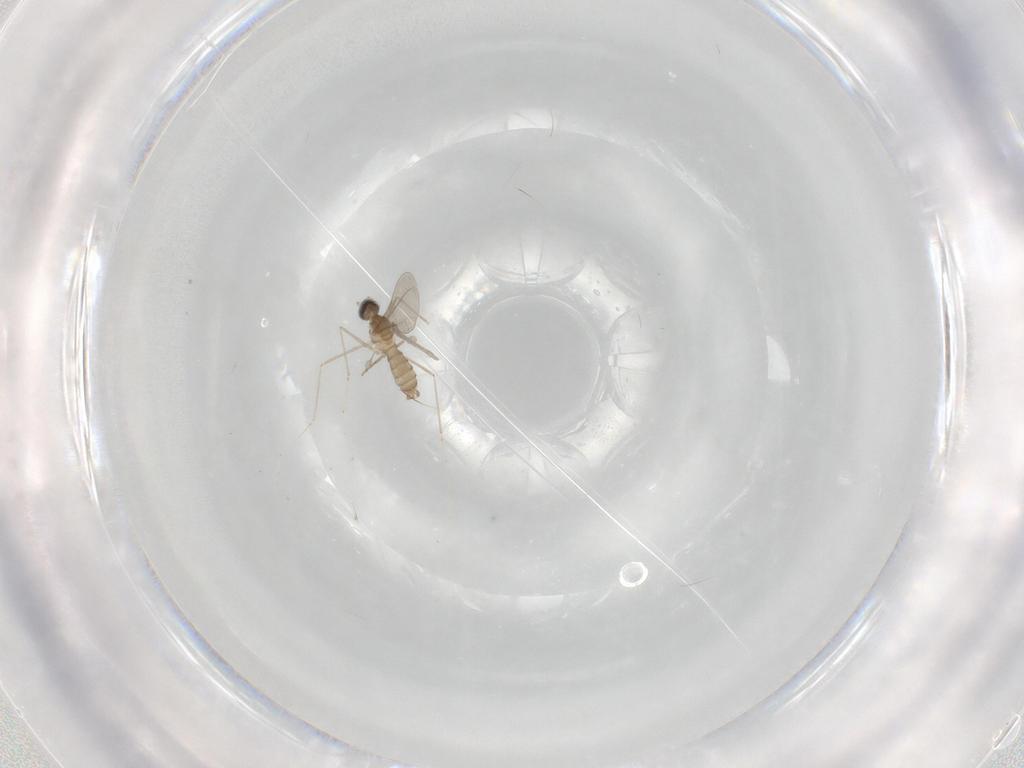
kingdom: Animalia
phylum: Arthropoda
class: Insecta
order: Diptera
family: Cecidomyiidae
